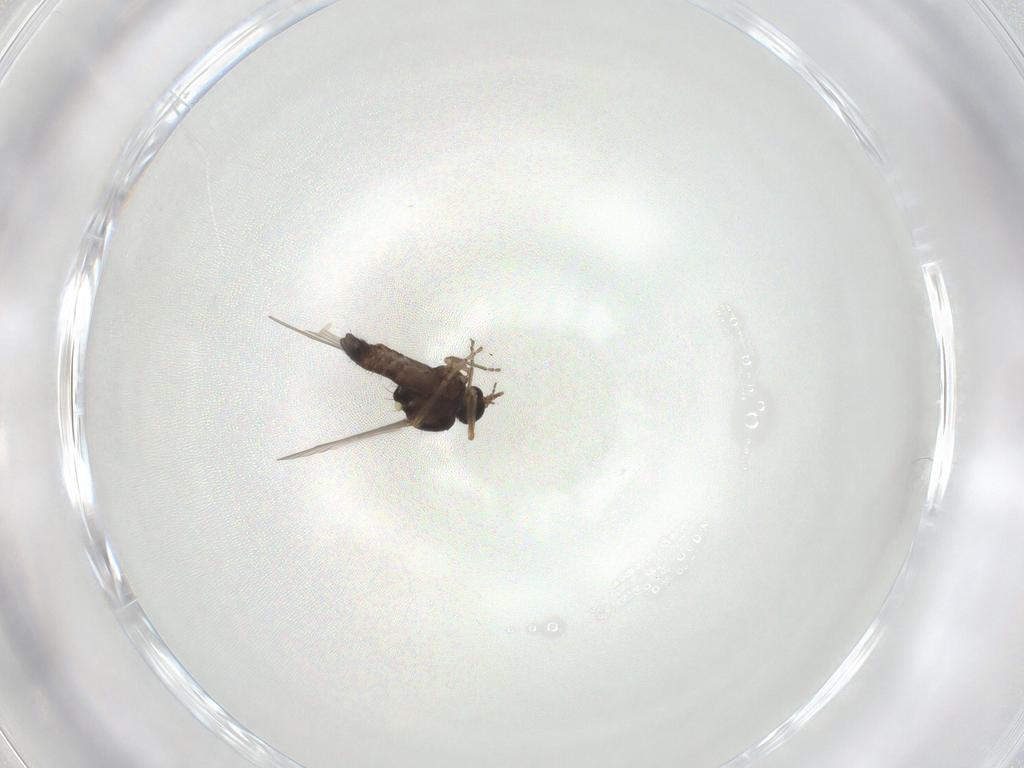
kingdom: Animalia
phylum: Arthropoda
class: Insecta
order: Diptera
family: Ceratopogonidae
